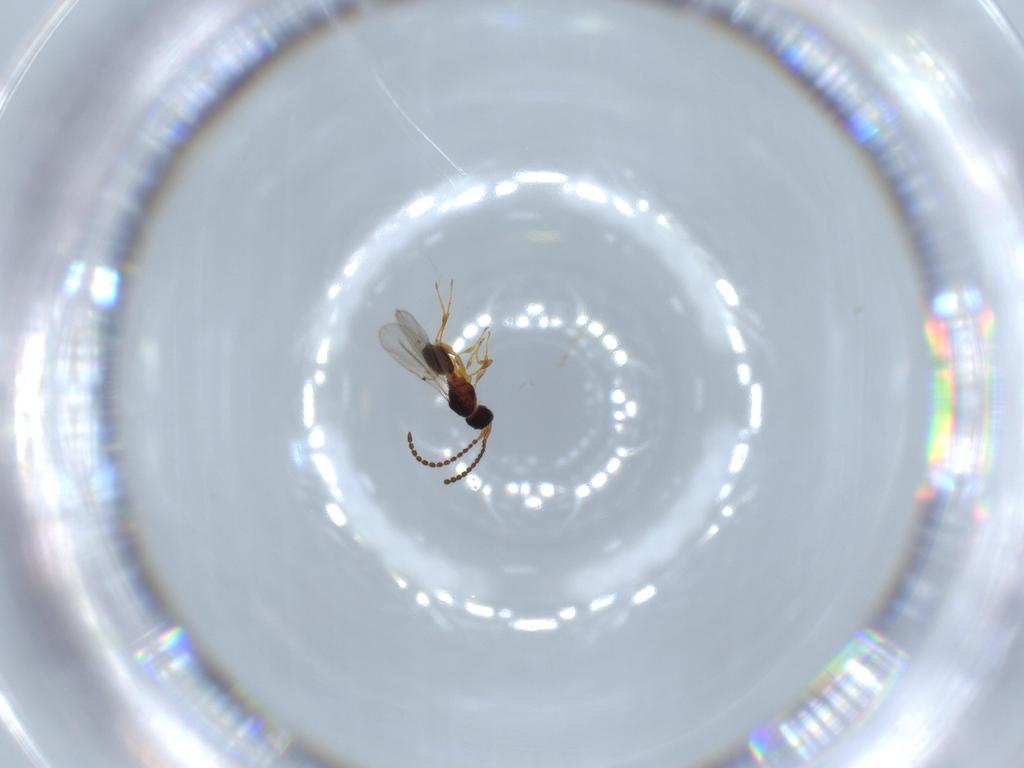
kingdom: Animalia
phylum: Arthropoda
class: Insecta
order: Hymenoptera
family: Diapriidae
